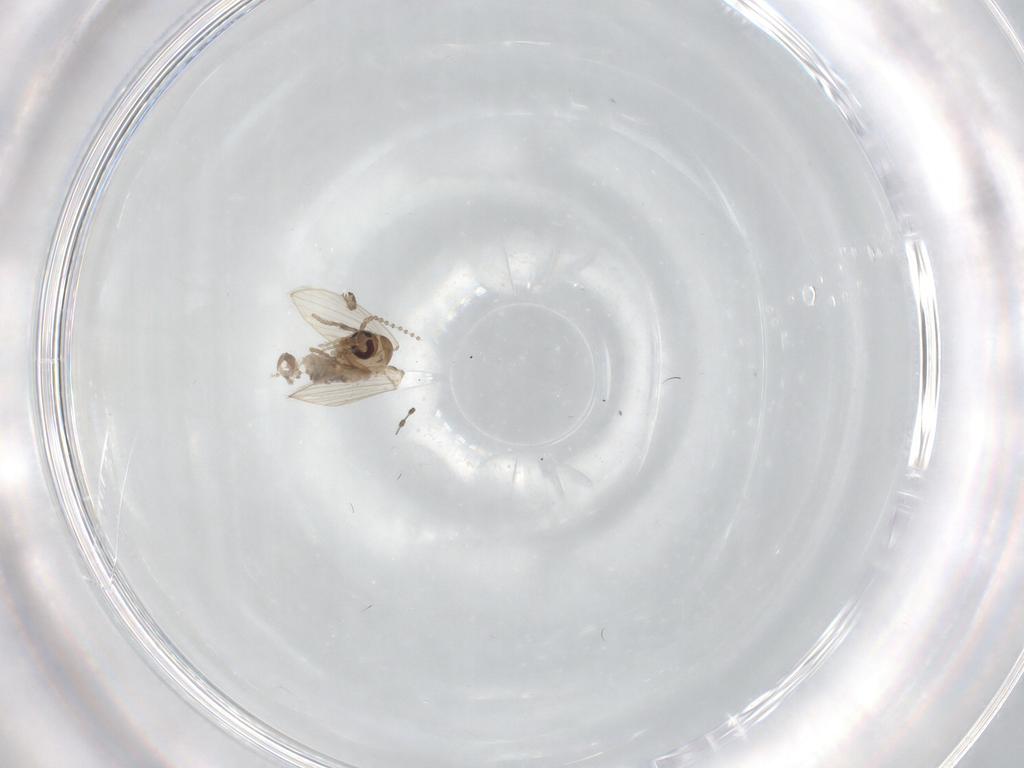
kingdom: Animalia
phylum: Arthropoda
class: Insecta
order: Diptera
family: Psychodidae
